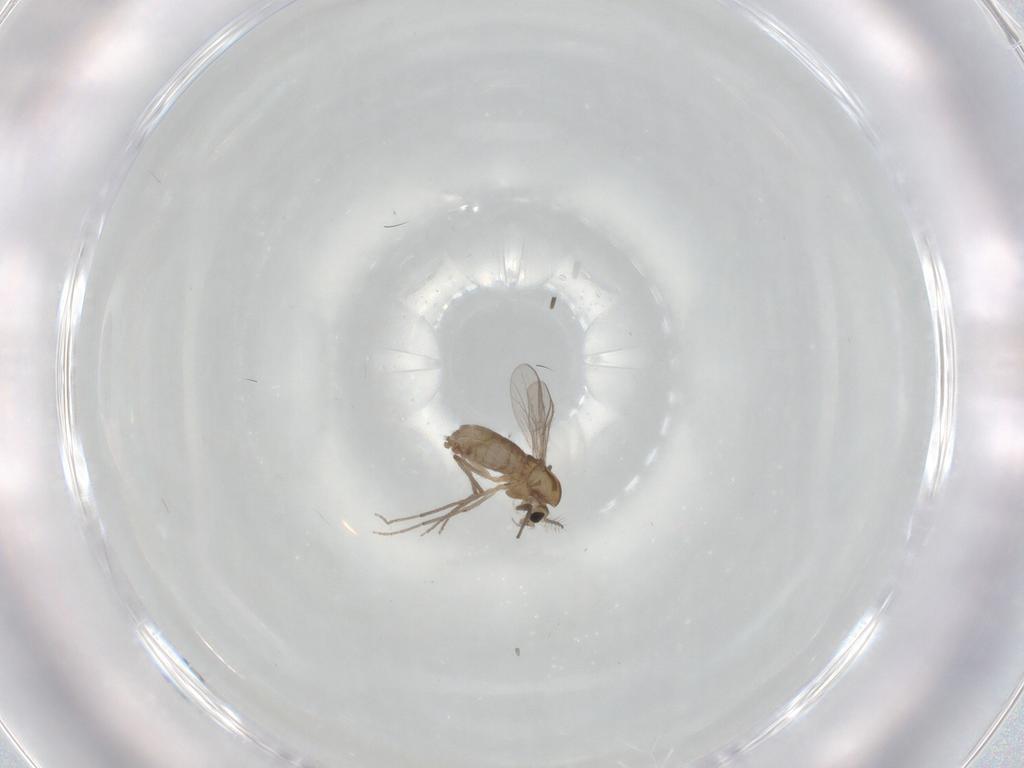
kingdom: Animalia
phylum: Arthropoda
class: Insecta
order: Diptera
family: Chironomidae
